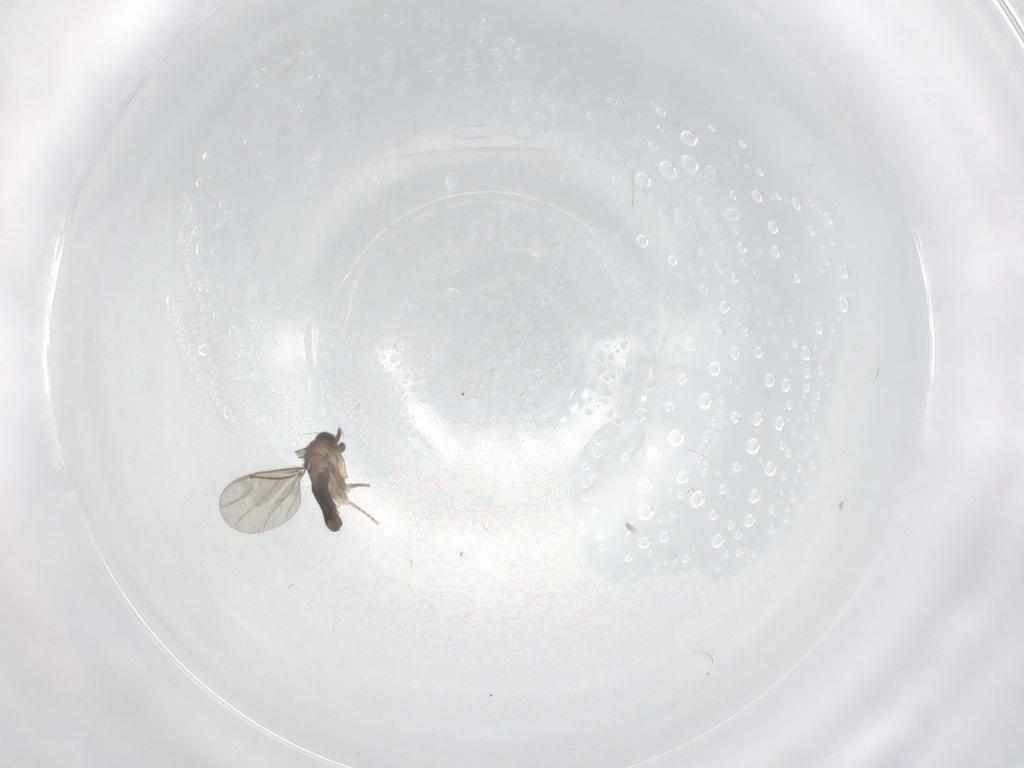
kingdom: Animalia
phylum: Arthropoda
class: Insecta
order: Diptera
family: Phoridae
